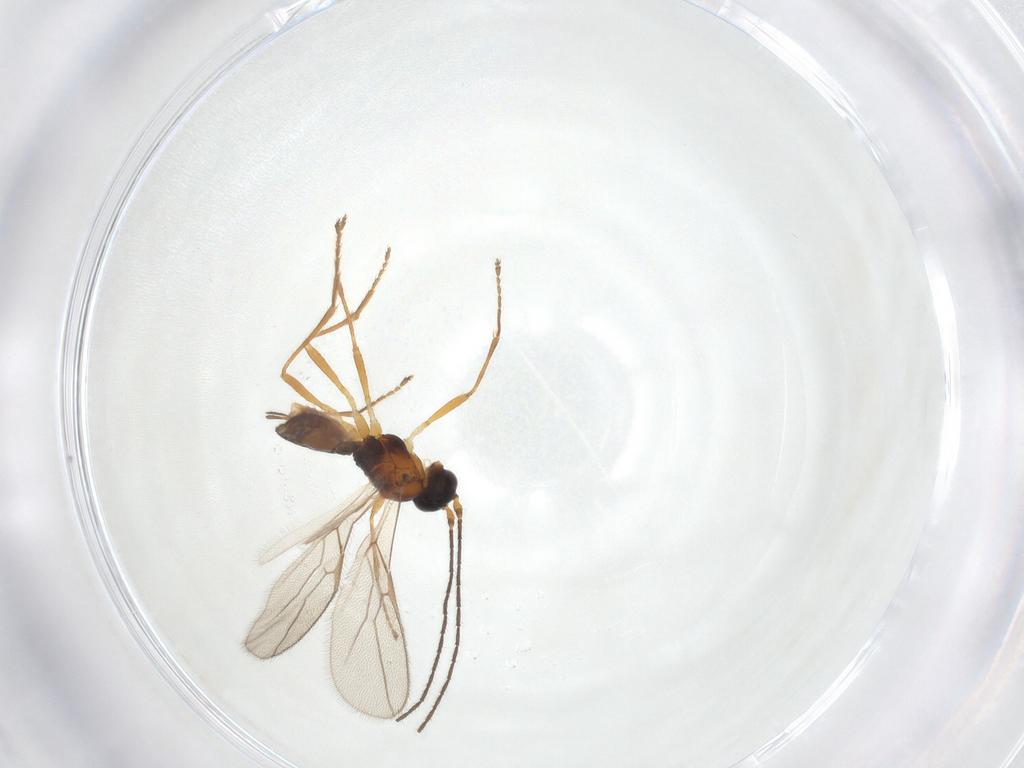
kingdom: Animalia
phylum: Arthropoda
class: Insecta
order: Hymenoptera
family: Braconidae
